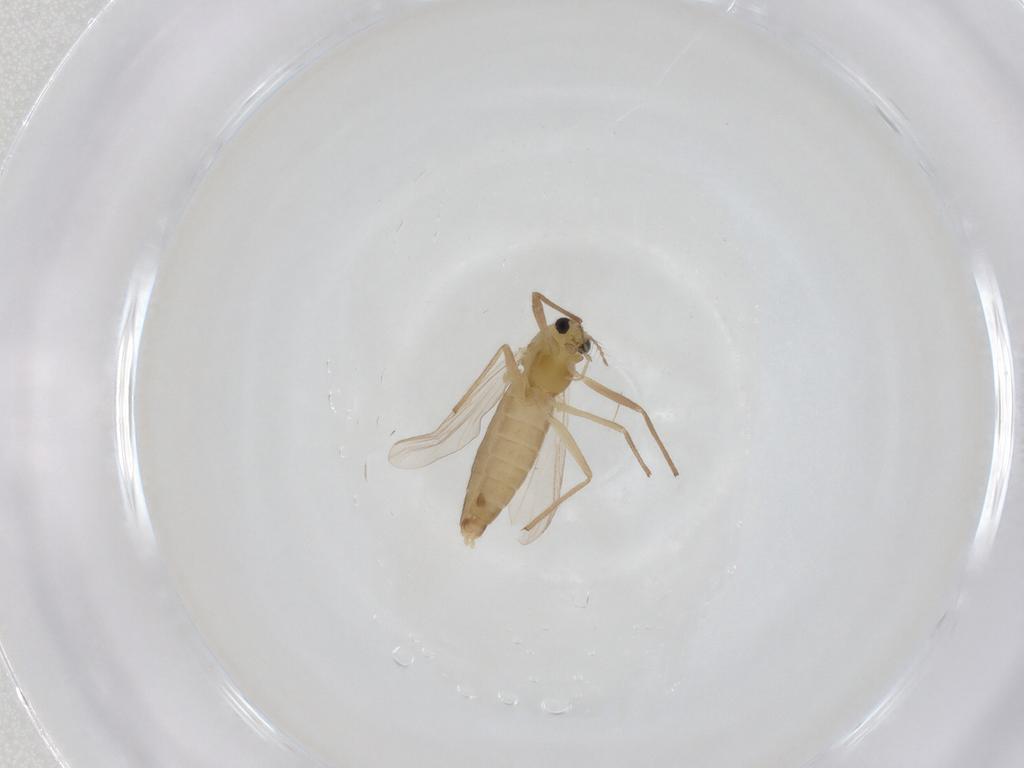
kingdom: Animalia
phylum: Arthropoda
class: Insecta
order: Diptera
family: Chironomidae
